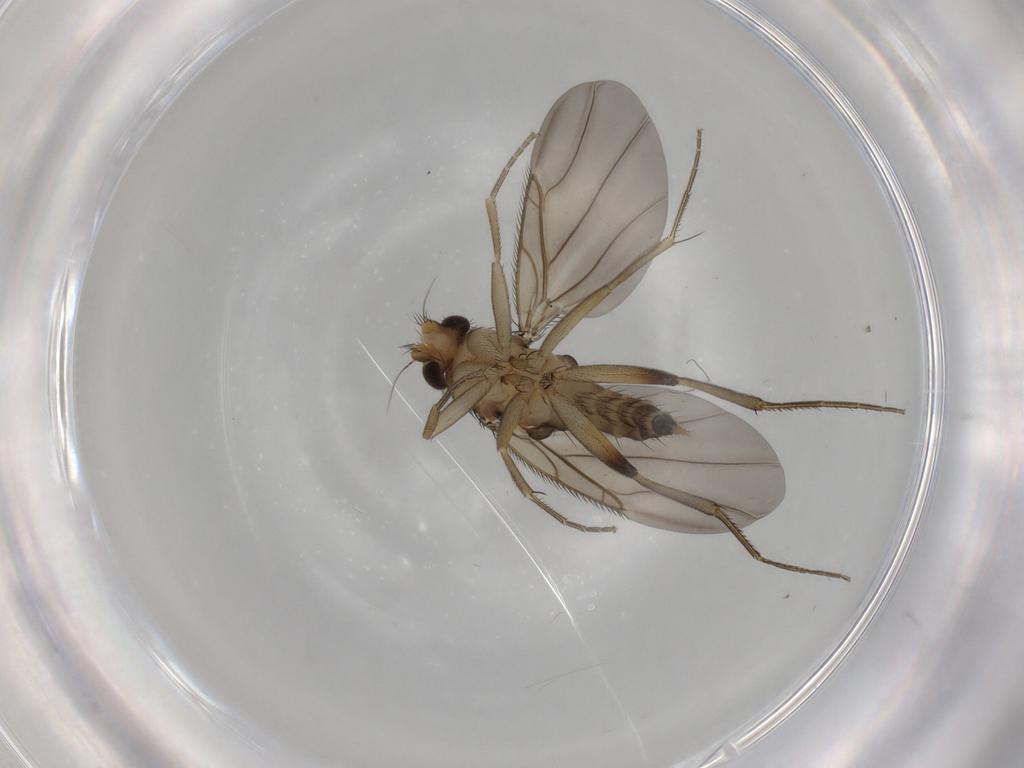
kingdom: Animalia
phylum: Arthropoda
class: Insecta
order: Diptera
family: Phoridae
